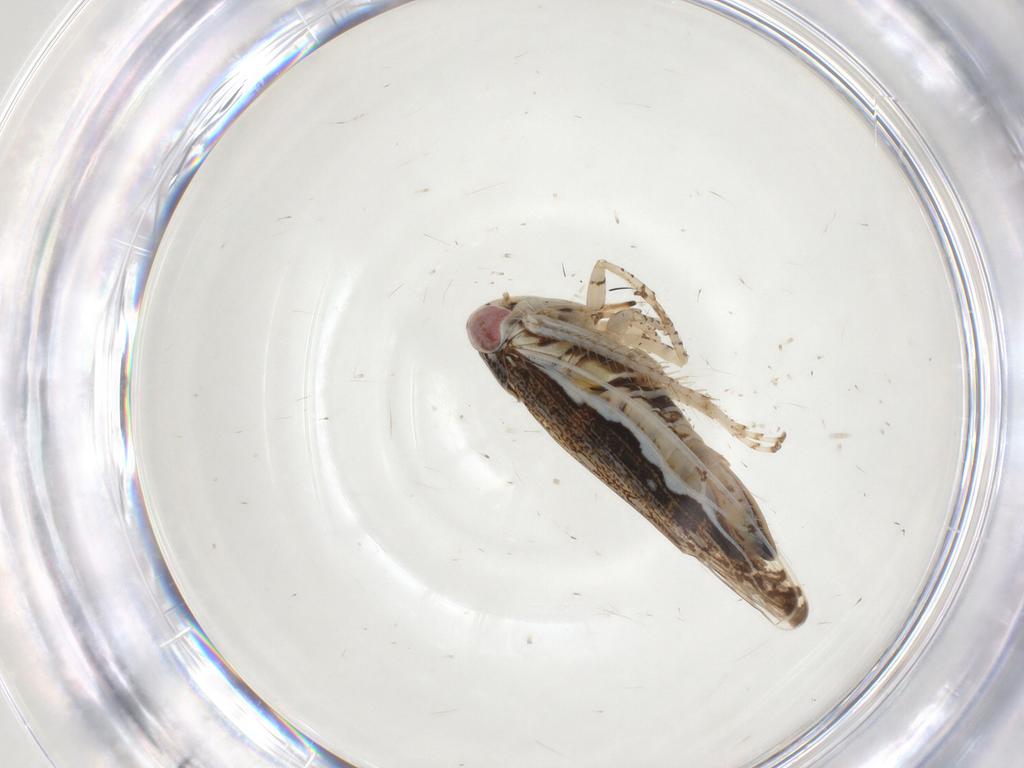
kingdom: Animalia
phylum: Arthropoda
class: Insecta
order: Hemiptera
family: Cicadellidae
